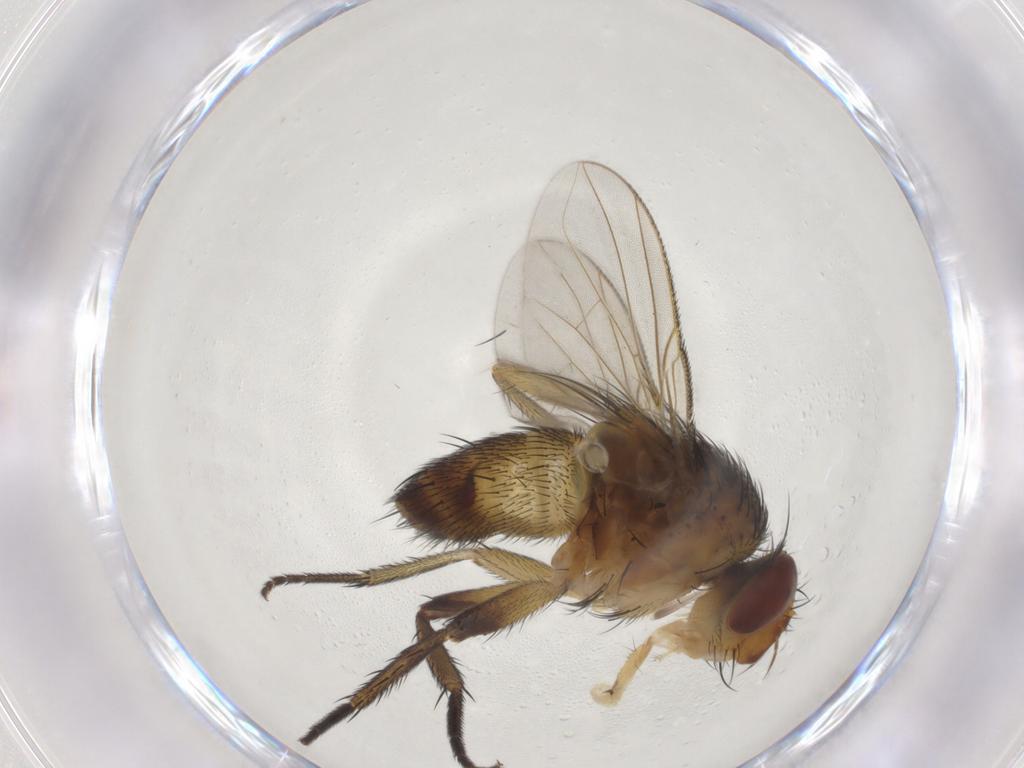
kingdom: Animalia
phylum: Arthropoda
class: Insecta
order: Diptera
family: Tachinidae
